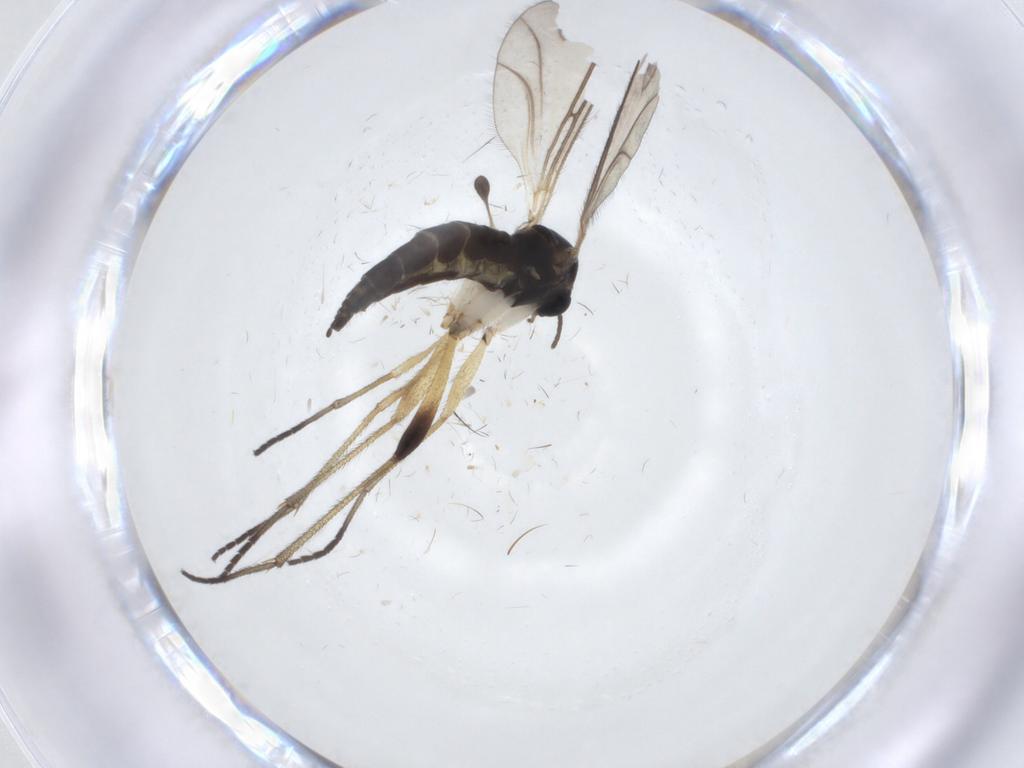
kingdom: Animalia
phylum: Arthropoda
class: Insecta
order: Diptera
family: Sciaridae
